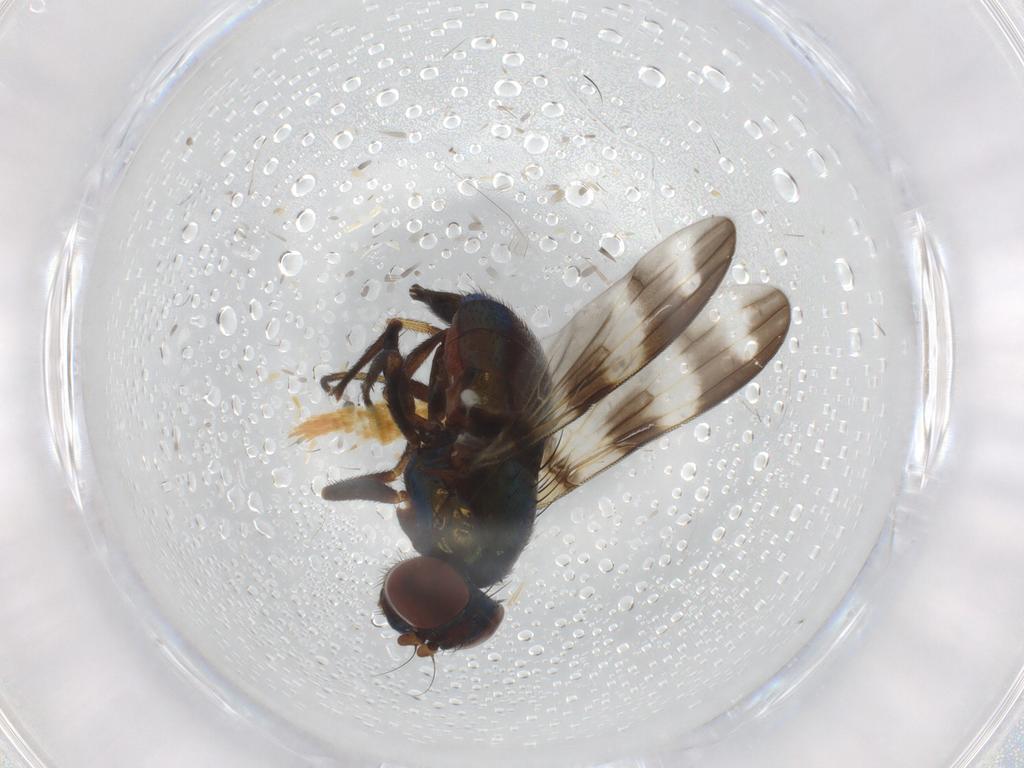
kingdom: Animalia
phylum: Arthropoda
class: Insecta
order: Diptera
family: Ulidiidae
